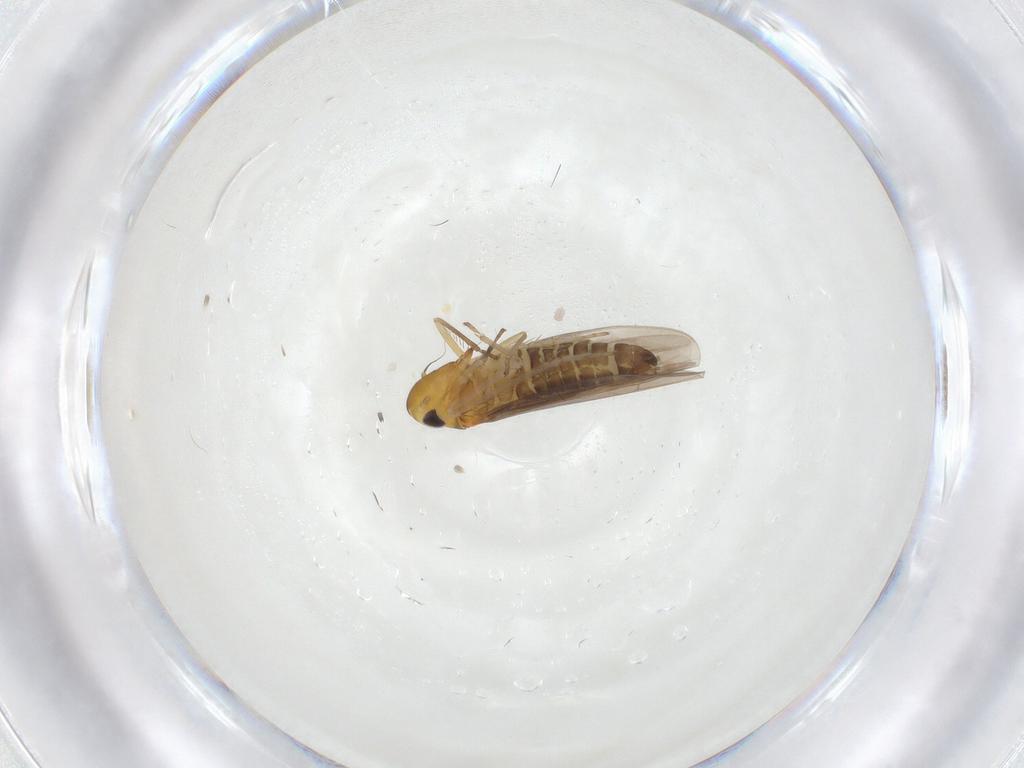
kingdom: Animalia
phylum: Arthropoda
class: Insecta
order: Hemiptera
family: Cicadellidae
